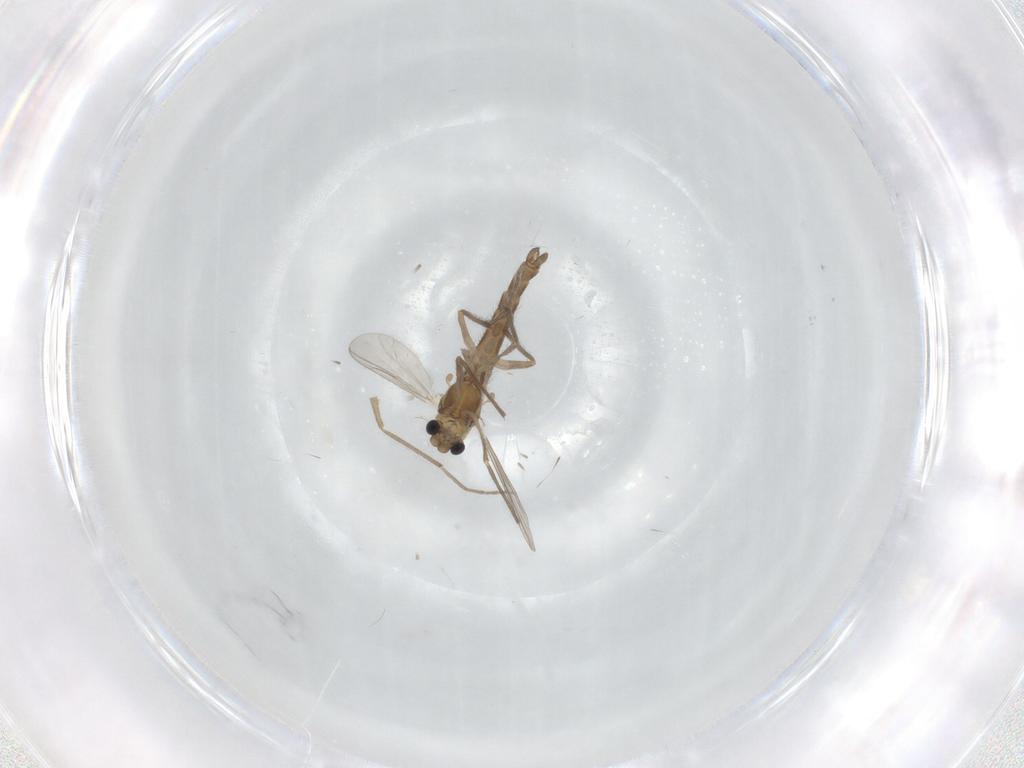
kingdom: Animalia
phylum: Arthropoda
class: Insecta
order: Diptera
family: Chironomidae
